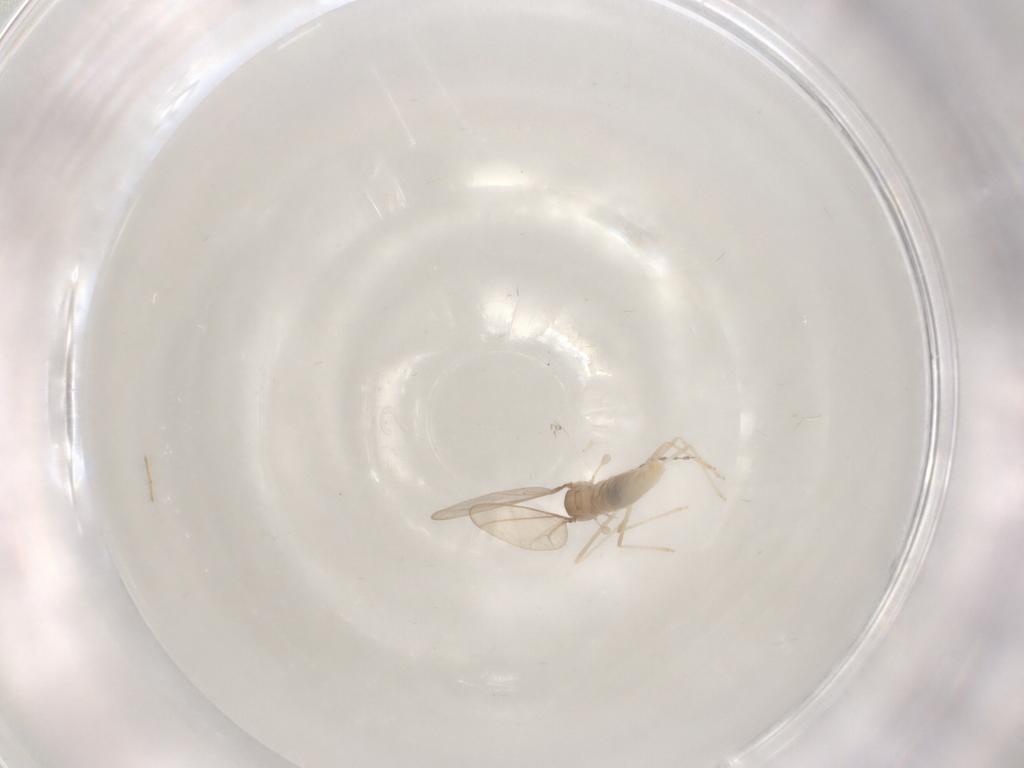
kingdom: Animalia
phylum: Arthropoda
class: Insecta
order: Diptera
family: Cecidomyiidae
